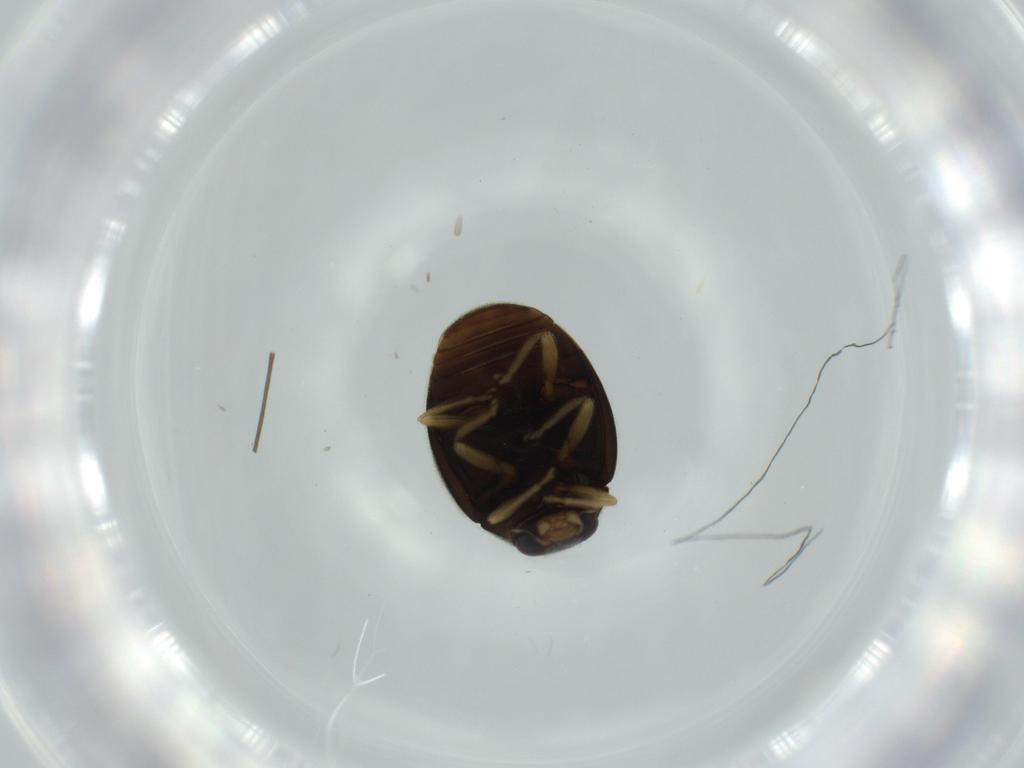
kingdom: Animalia
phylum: Arthropoda
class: Insecta
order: Coleoptera
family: Coccinellidae
